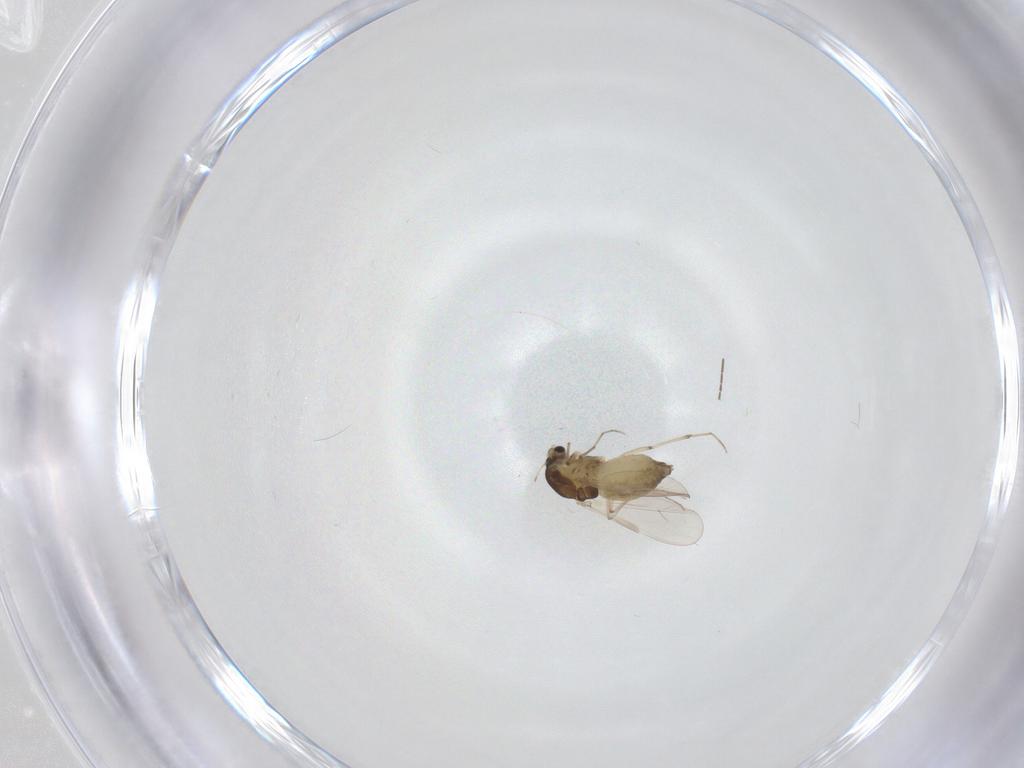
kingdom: Animalia
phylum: Arthropoda
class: Insecta
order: Diptera
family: Chironomidae
